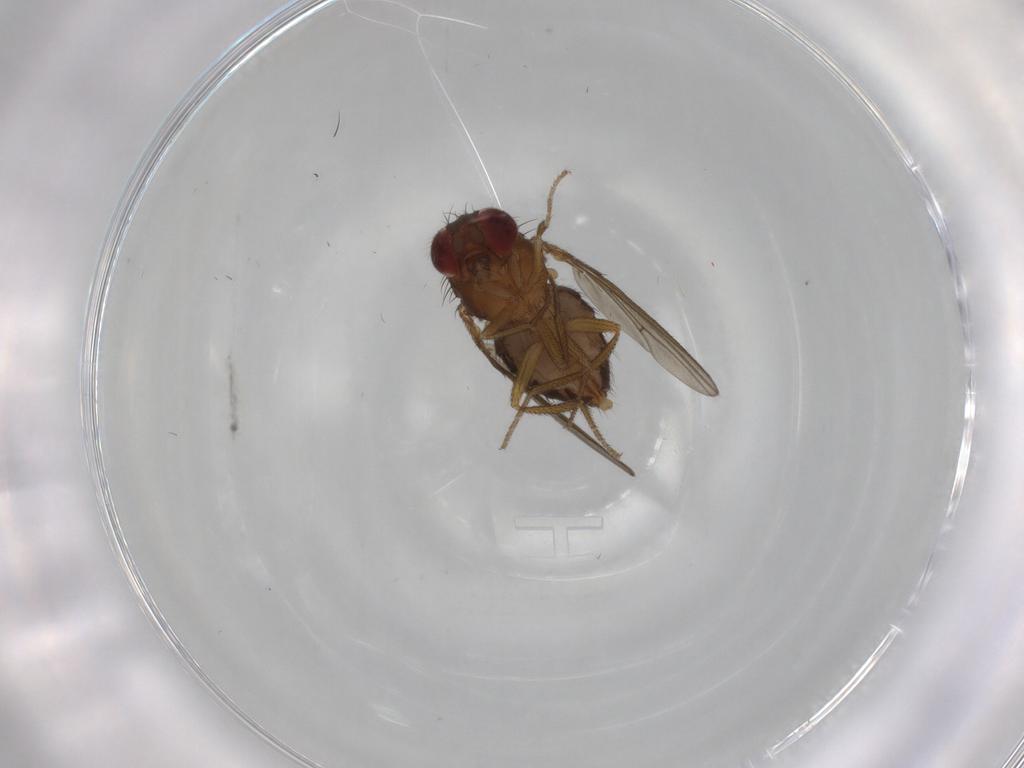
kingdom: Animalia
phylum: Arthropoda
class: Insecta
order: Diptera
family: Drosophilidae
